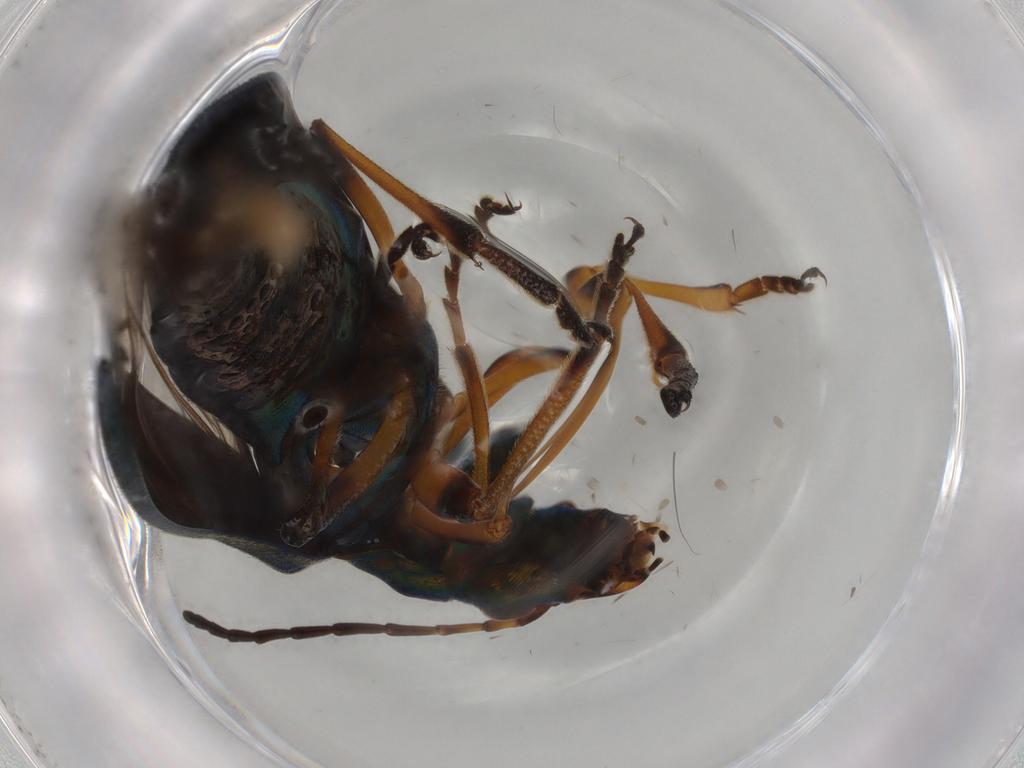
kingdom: Animalia
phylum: Arthropoda
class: Insecta
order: Coleoptera
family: Oedemeridae
